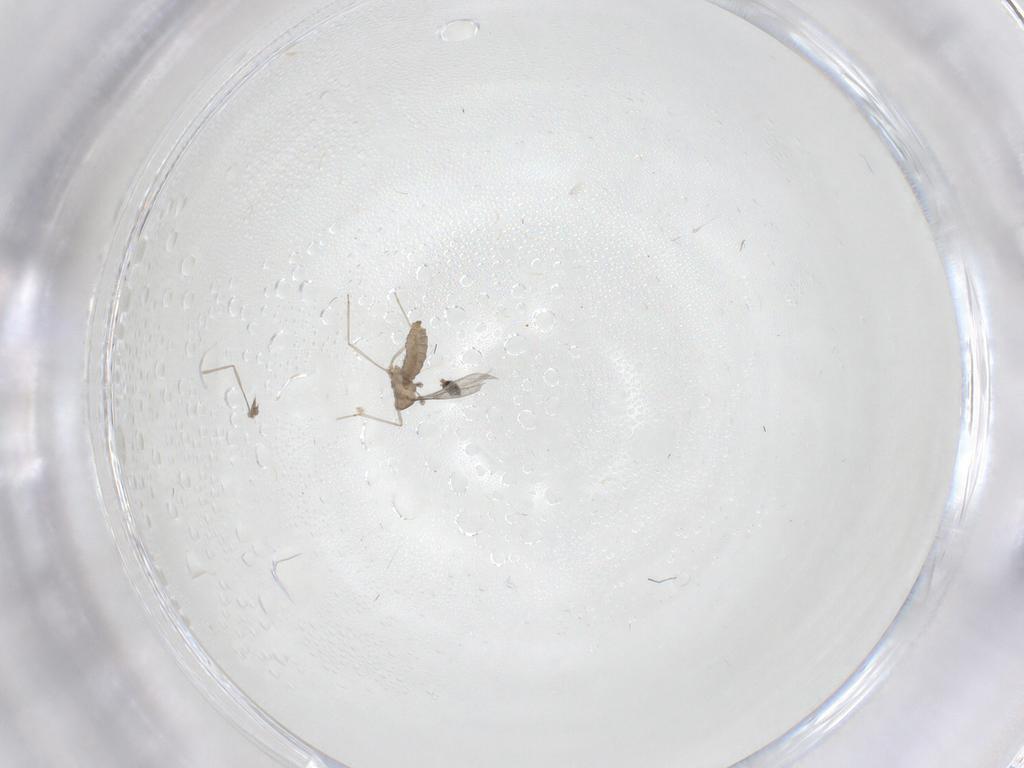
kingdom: Animalia
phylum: Arthropoda
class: Insecta
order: Diptera
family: Cecidomyiidae
